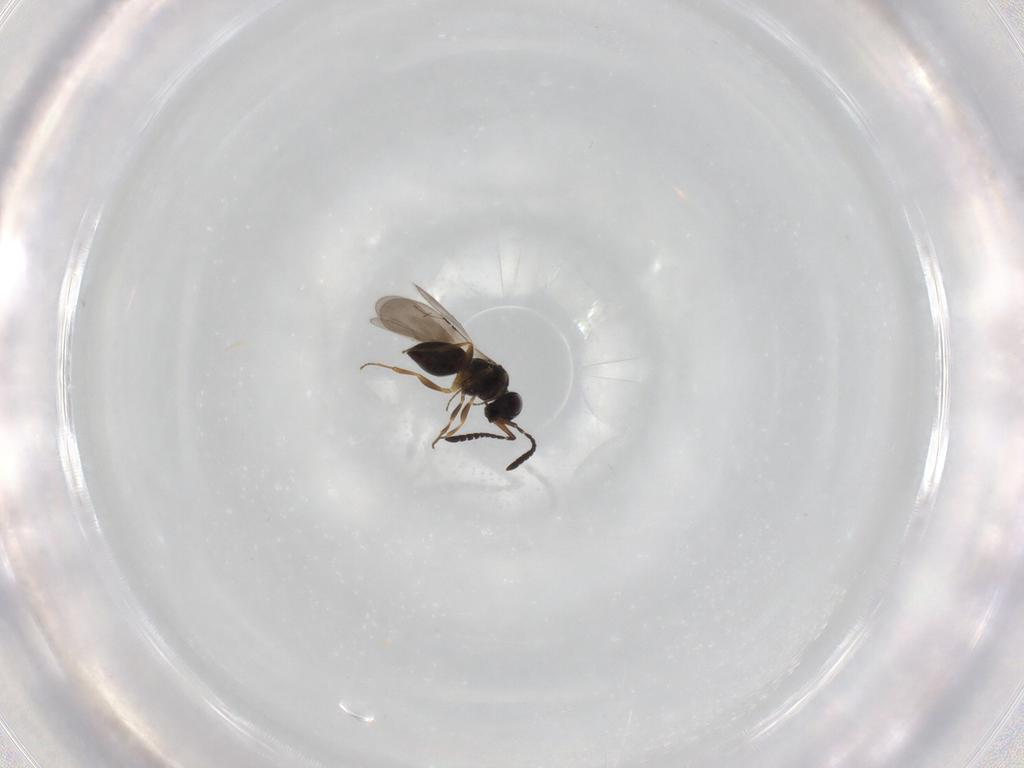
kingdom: Animalia
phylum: Arthropoda
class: Insecta
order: Hymenoptera
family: Ceraphronidae
